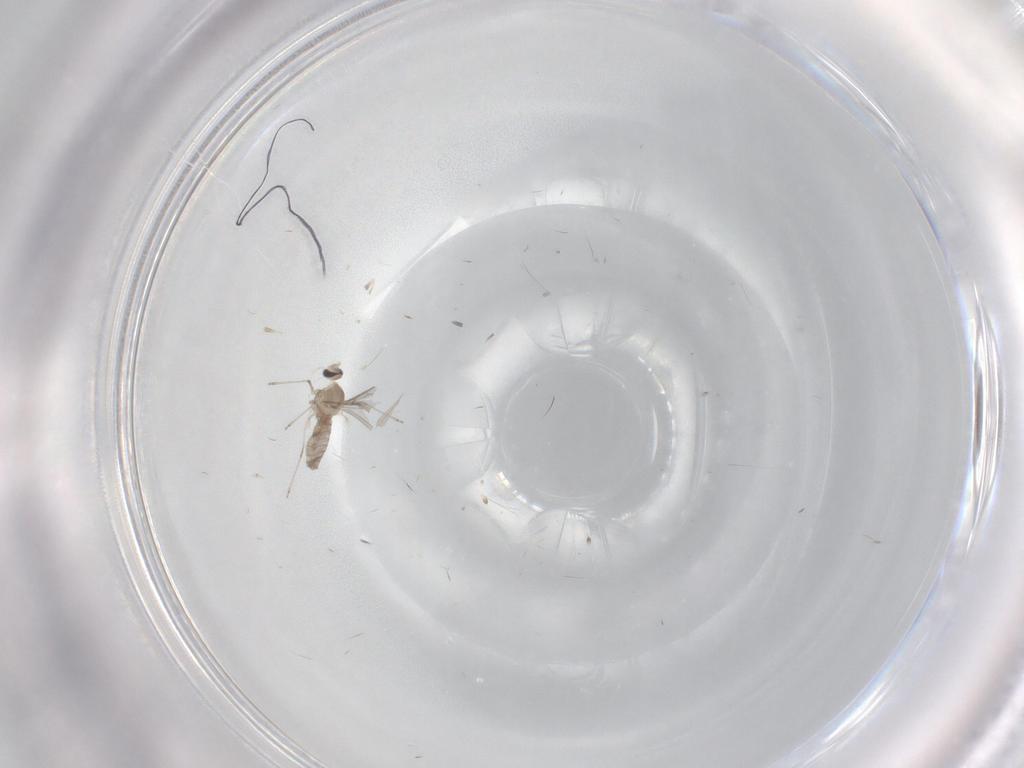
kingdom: Animalia
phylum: Arthropoda
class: Insecta
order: Diptera
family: Cecidomyiidae
